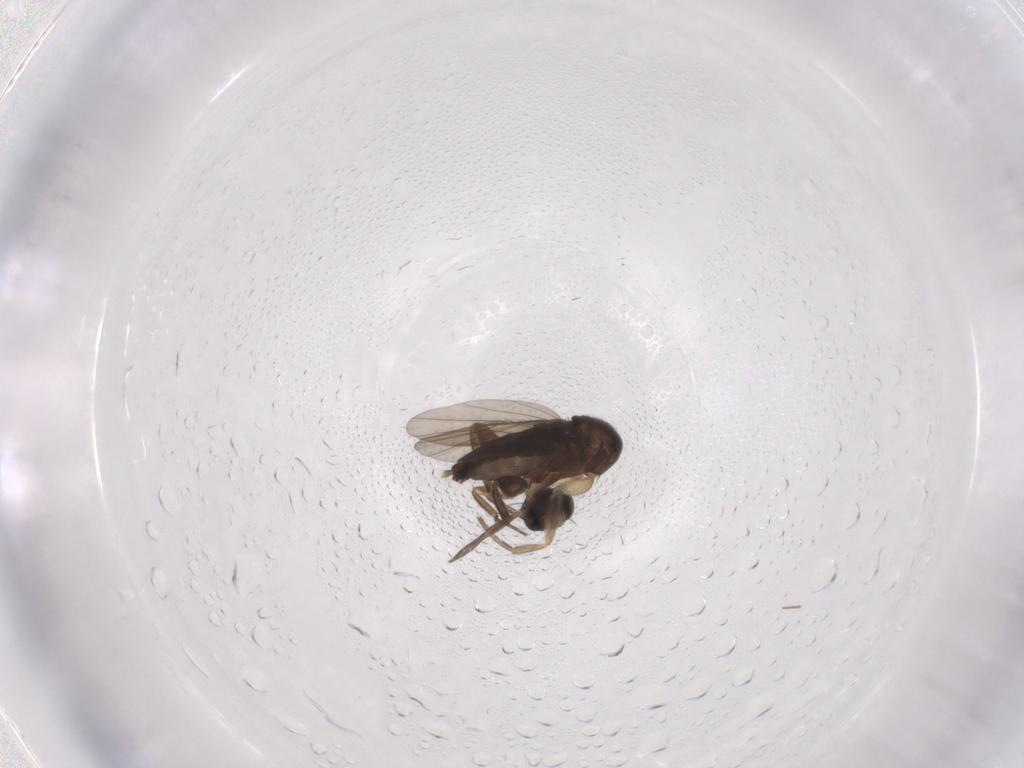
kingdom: Animalia
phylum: Arthropoda
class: Insecta
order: Diptera
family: Phoridae
